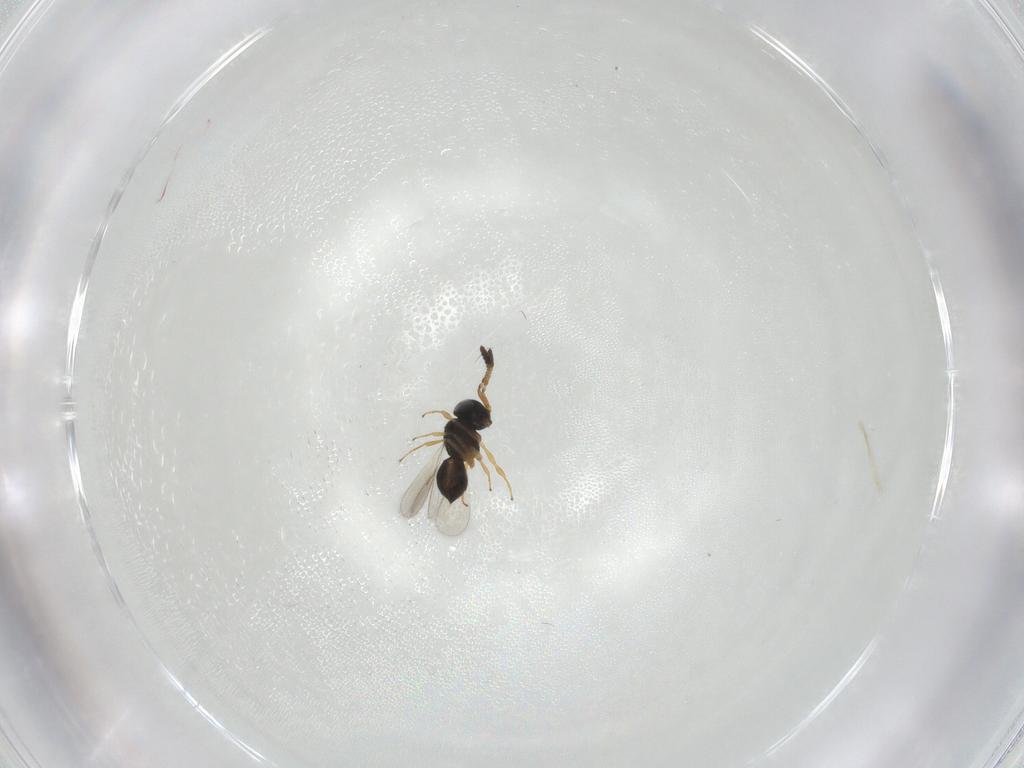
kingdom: Animalia
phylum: Arthropoda
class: Insecta
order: Hymenoptera
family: Scelionidae
